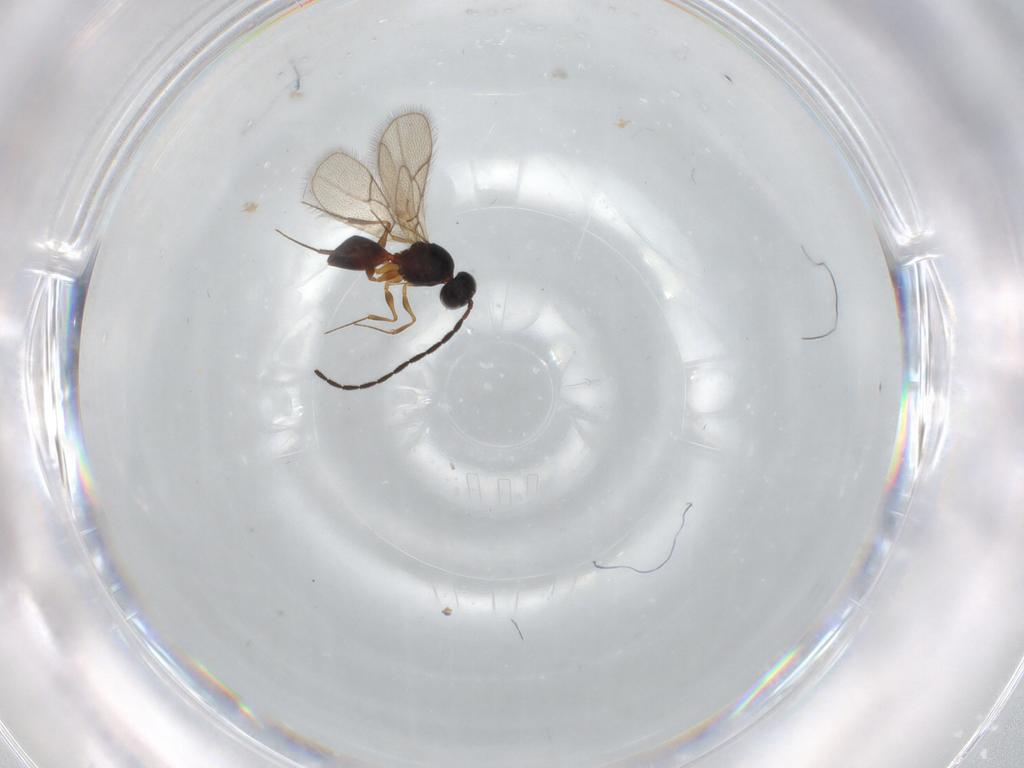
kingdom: Animalia
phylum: Arthropoda
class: Insecta
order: Hymenoptera
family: Figitidae
